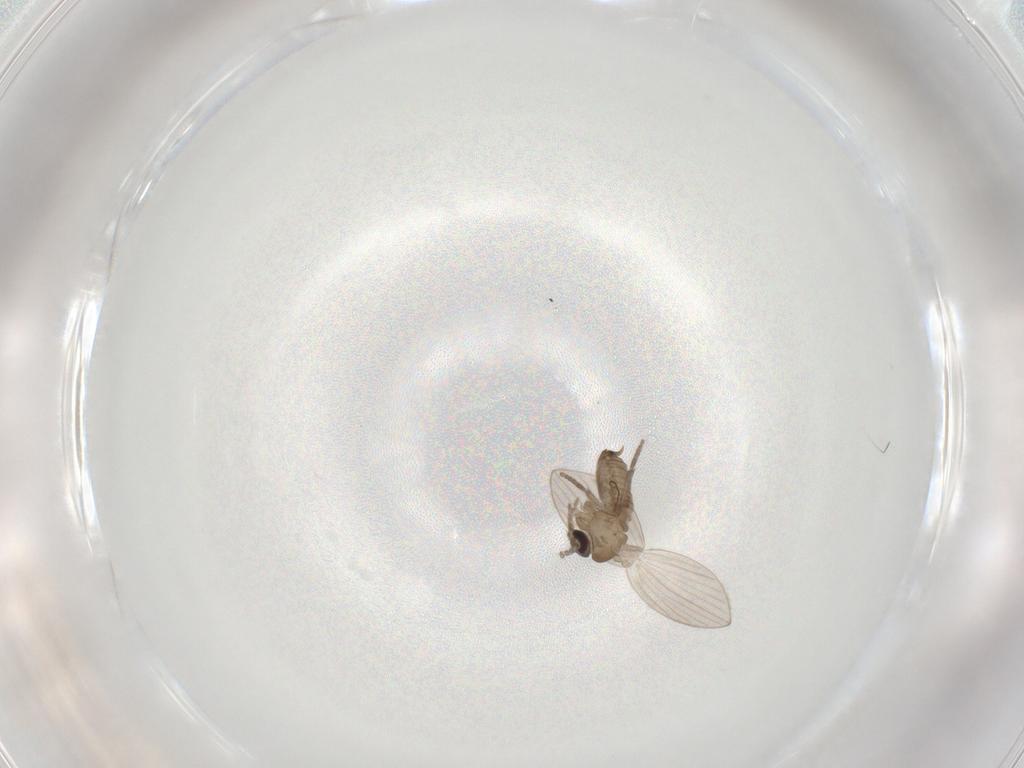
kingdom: Animalia
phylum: Arthropoda
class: Insecta
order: Diptera
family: Psychodidae
